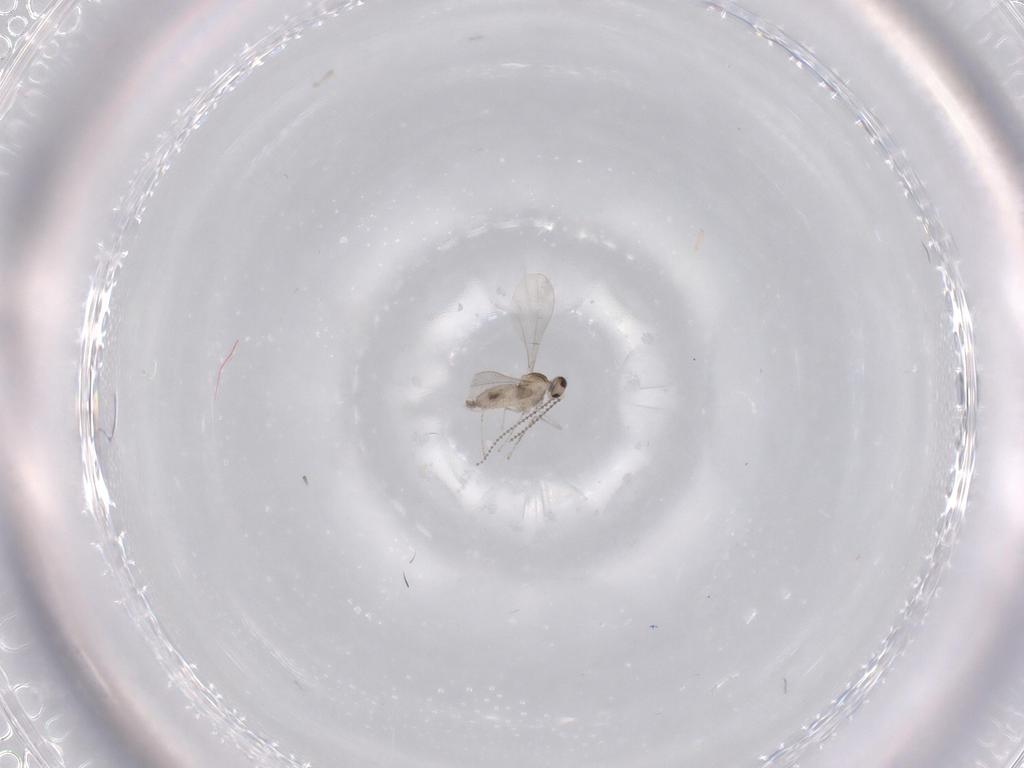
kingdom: Animalia
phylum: Arthropoda
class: Insecta
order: Diptera
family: Cecidomyiidae
